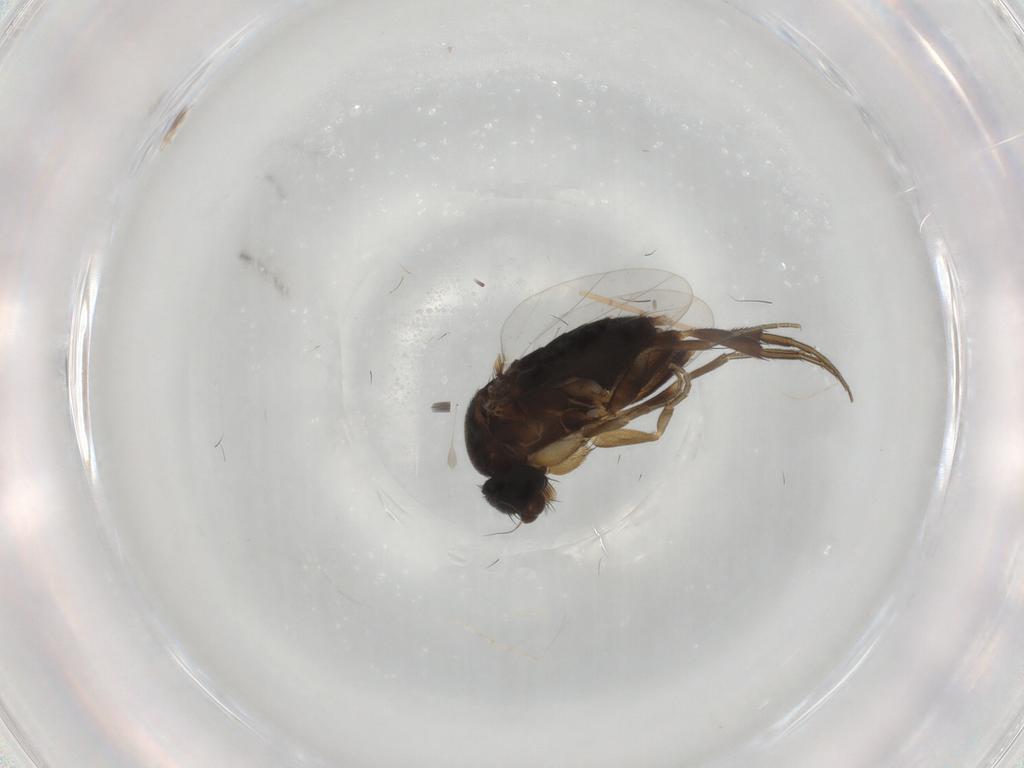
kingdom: Animalia
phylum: Arthropoda
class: Insecta
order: Diptera
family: Phoridae
